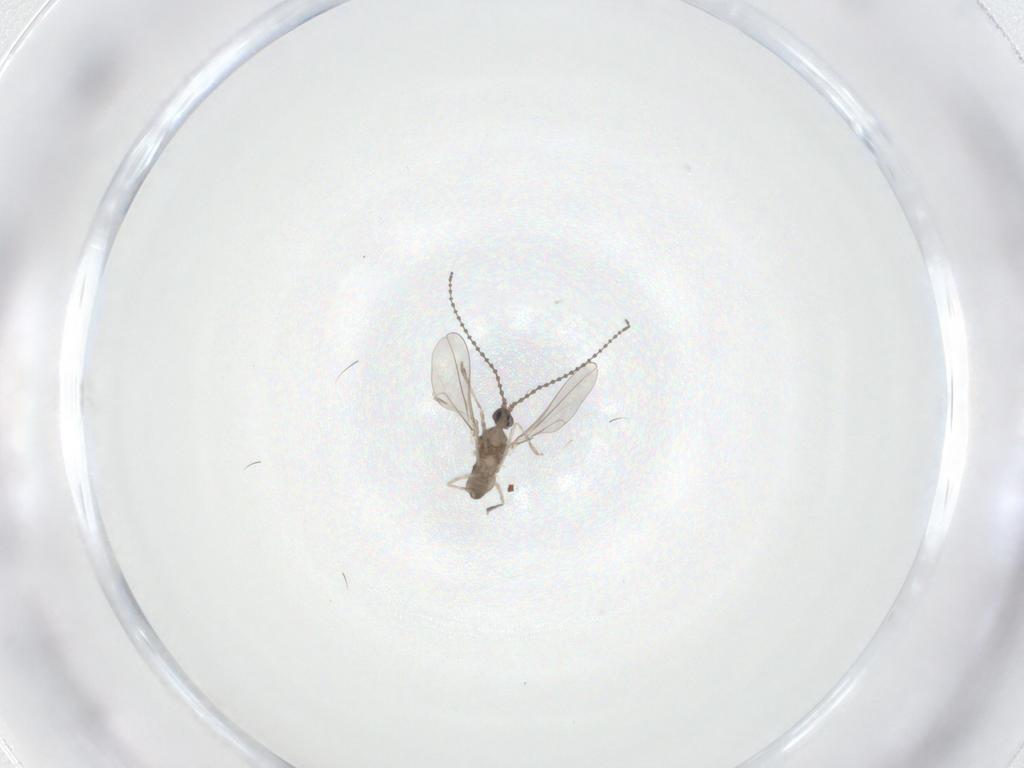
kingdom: Animalia
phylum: Arthropoda
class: Insecta
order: Diptera
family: Cecidomyiidae
